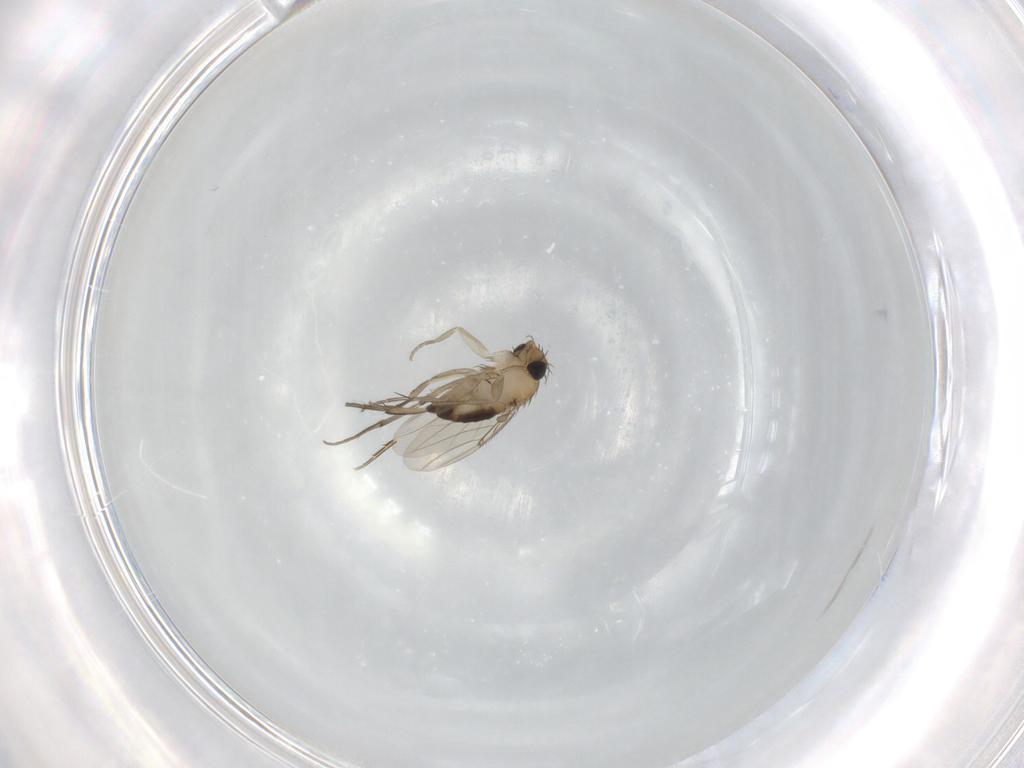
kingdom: Animalia
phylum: Arthropoda
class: Insecta
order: Diptera
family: Phoridae
